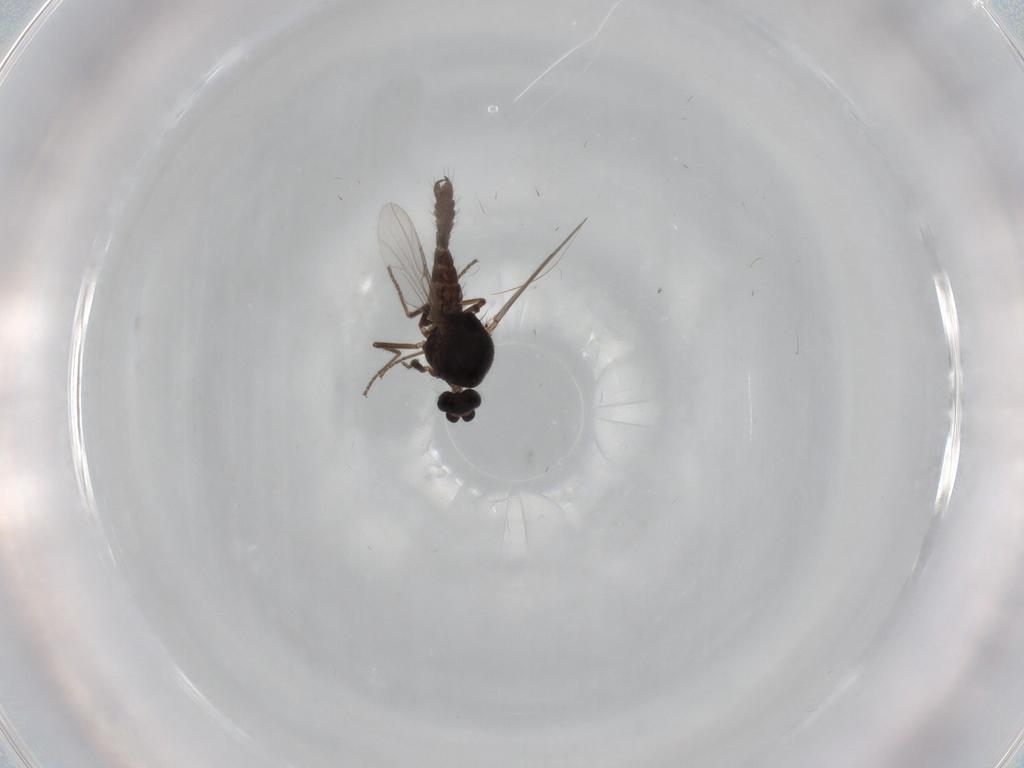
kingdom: Animalia
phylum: Arthropoda
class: Insecta
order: Diptera
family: Ceratopogonidae
